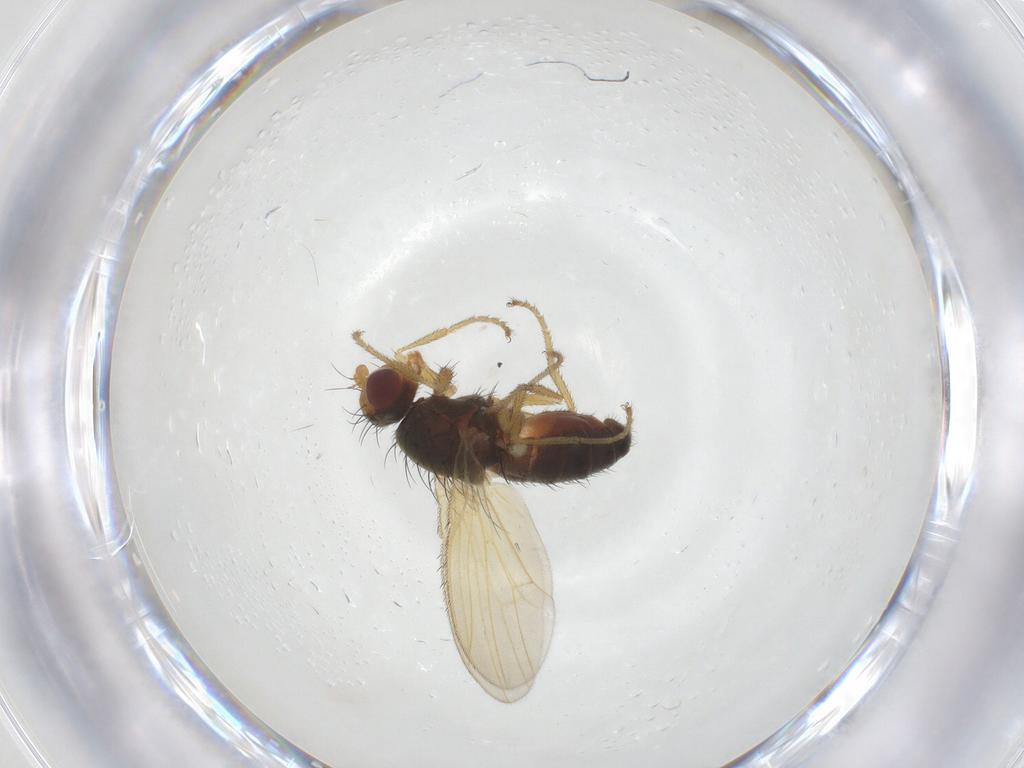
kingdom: Animalia
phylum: Arthropoda
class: Insecta
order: Diptera
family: Heleomyzidae
